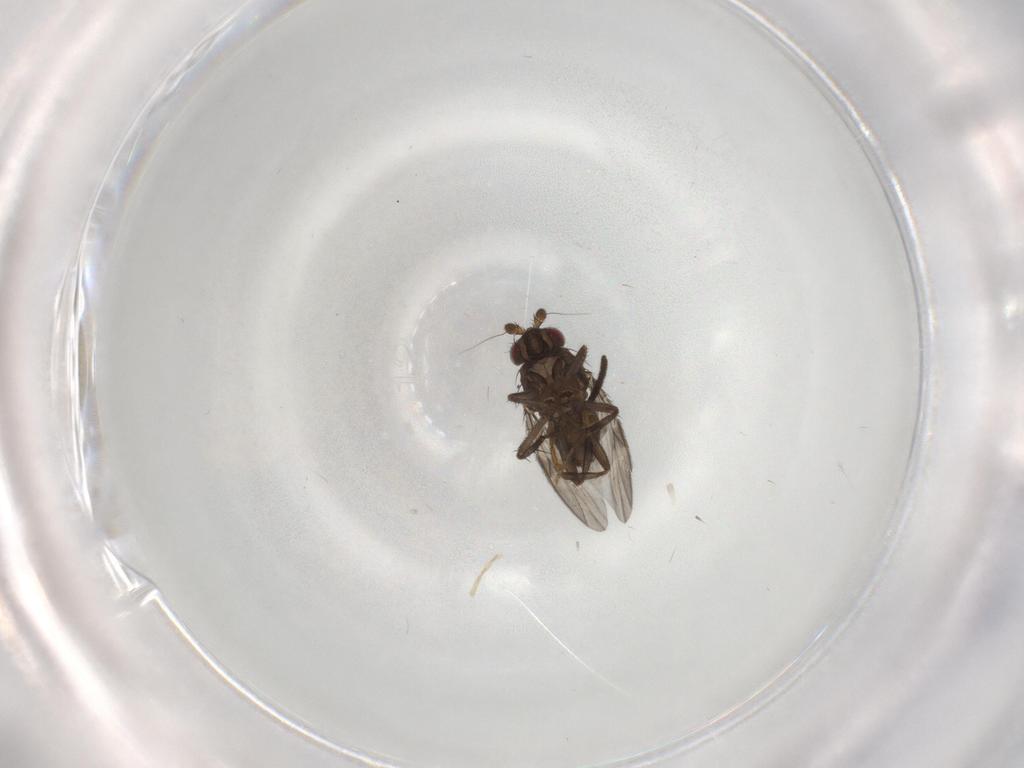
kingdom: Animalia
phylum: Arthropoda
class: Insecta
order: Diptera
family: Sphaeroceridae
